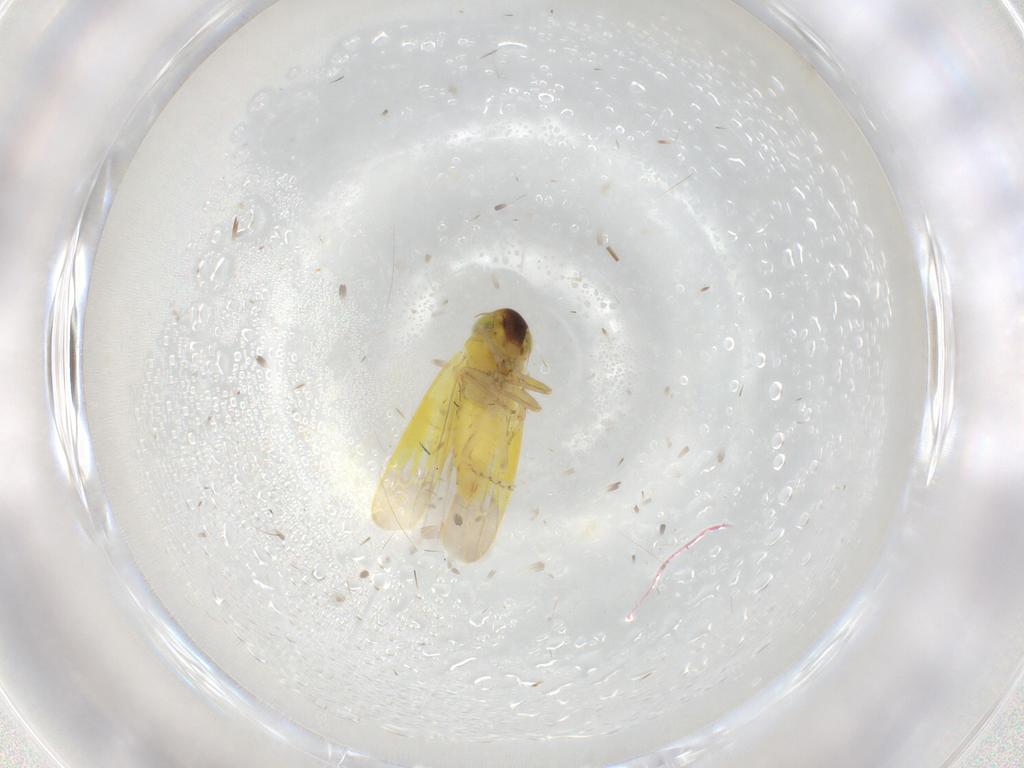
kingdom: Animalia
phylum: Arthropoda
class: Insecta
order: Hemiptera
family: Cicadellidae
